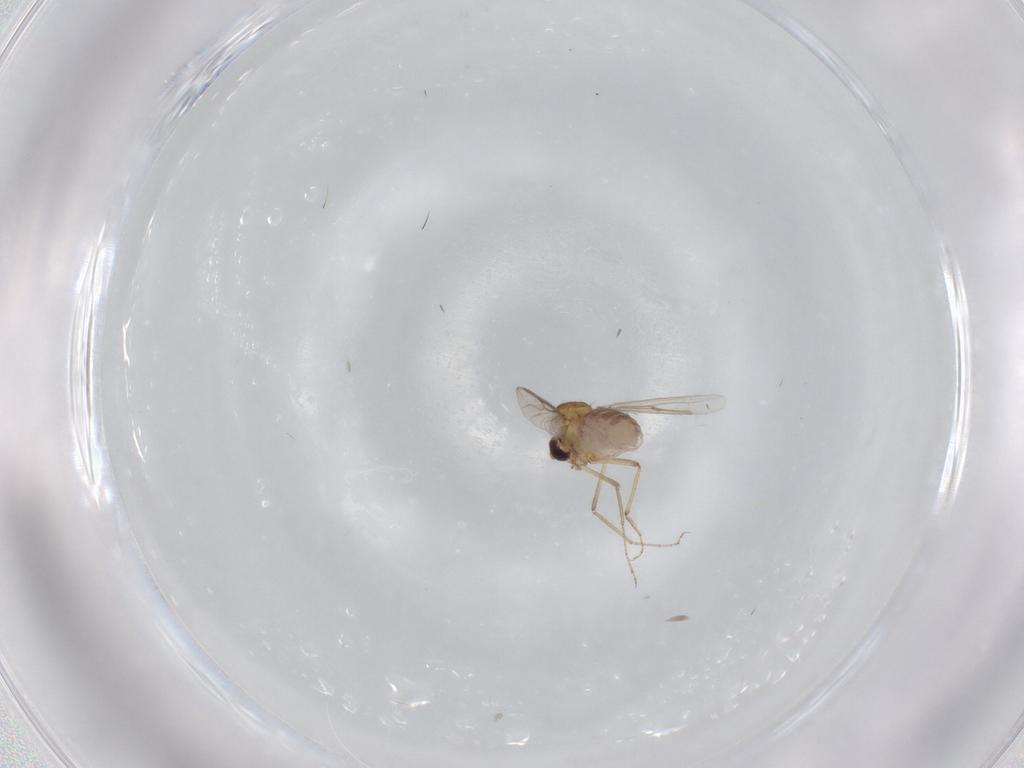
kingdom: Animalia
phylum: Arthropoda
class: Insecta
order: Diptera
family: Ceratopogonidae
